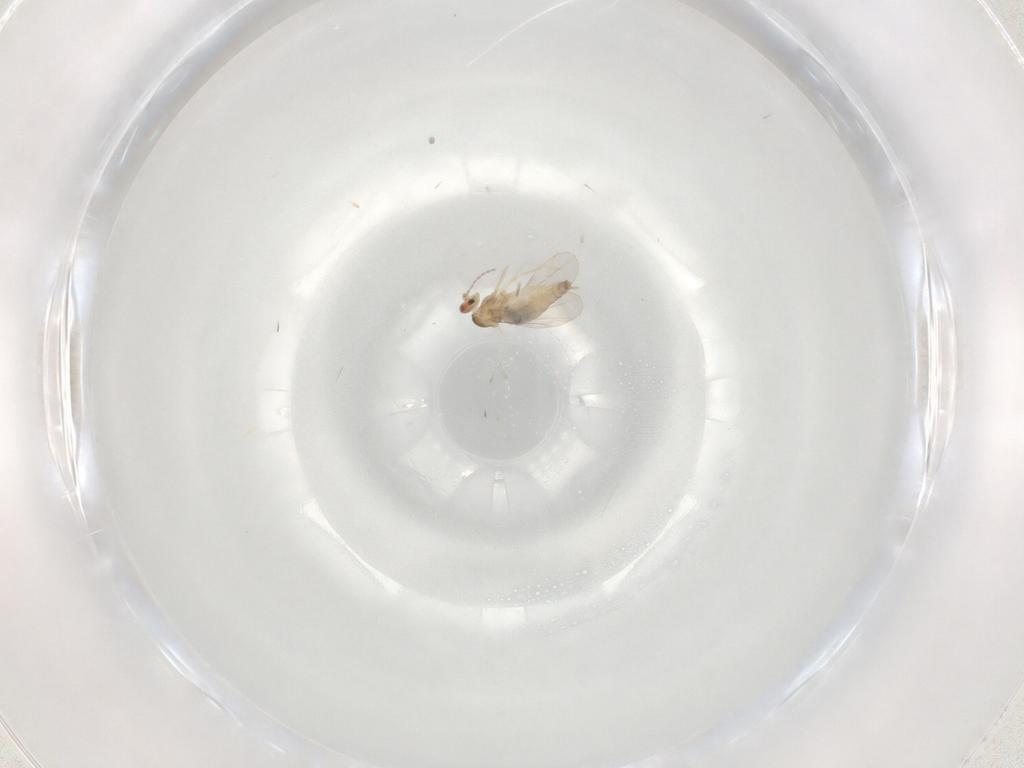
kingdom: Animalia
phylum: Arthropoda
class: Insecta
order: Diptera
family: Cecidomyiidae
